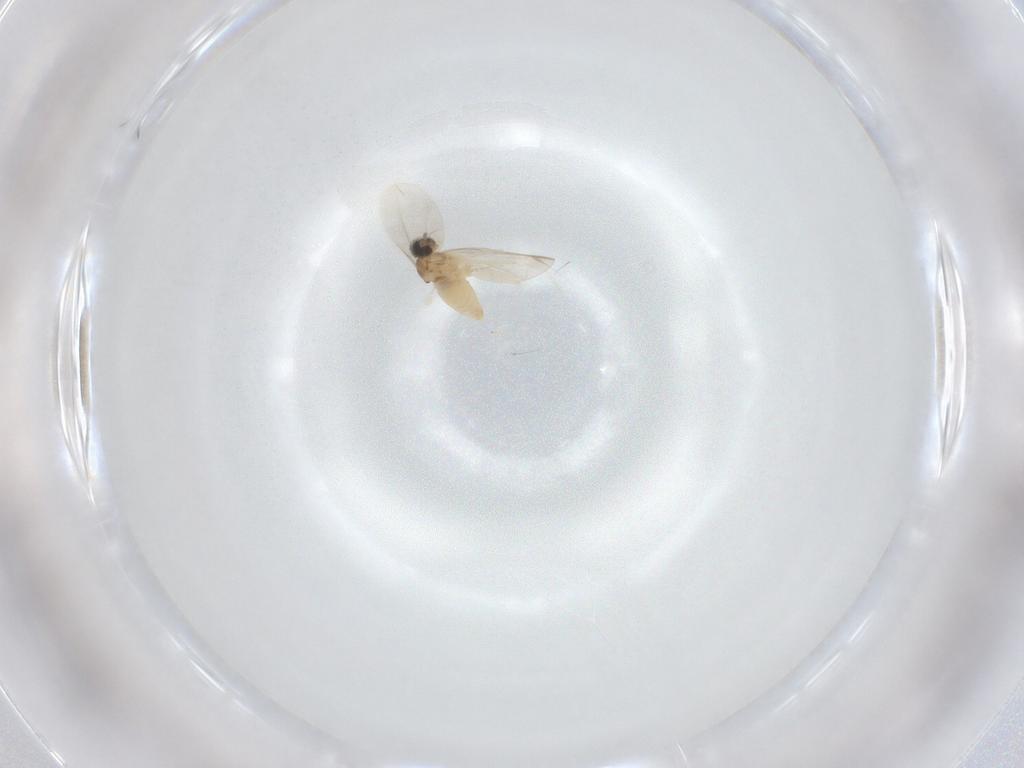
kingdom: Animalia
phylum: Arthropoda
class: Insecta
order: Diptera
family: Cecidomyiidae
